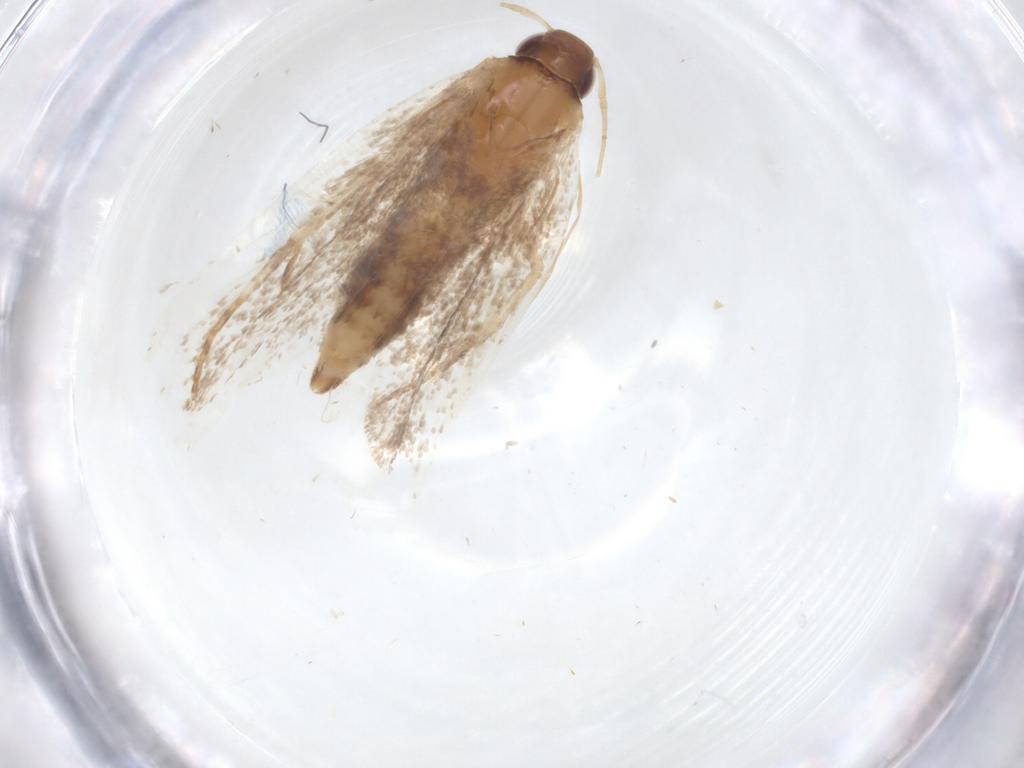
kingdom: Animalia
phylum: Arthropoda
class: Insecta
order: Lepidoptera
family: Gelechiidae
